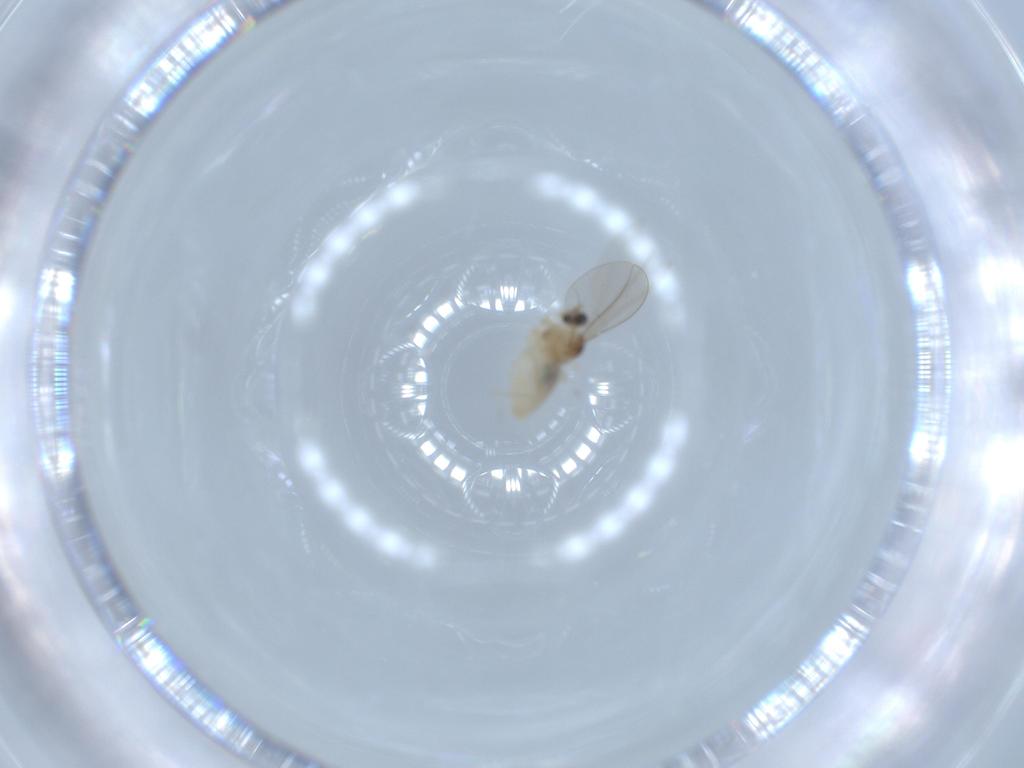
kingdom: Animalia
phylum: Arthropoda
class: Insecta
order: Diptera
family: Cecidomyiidae
